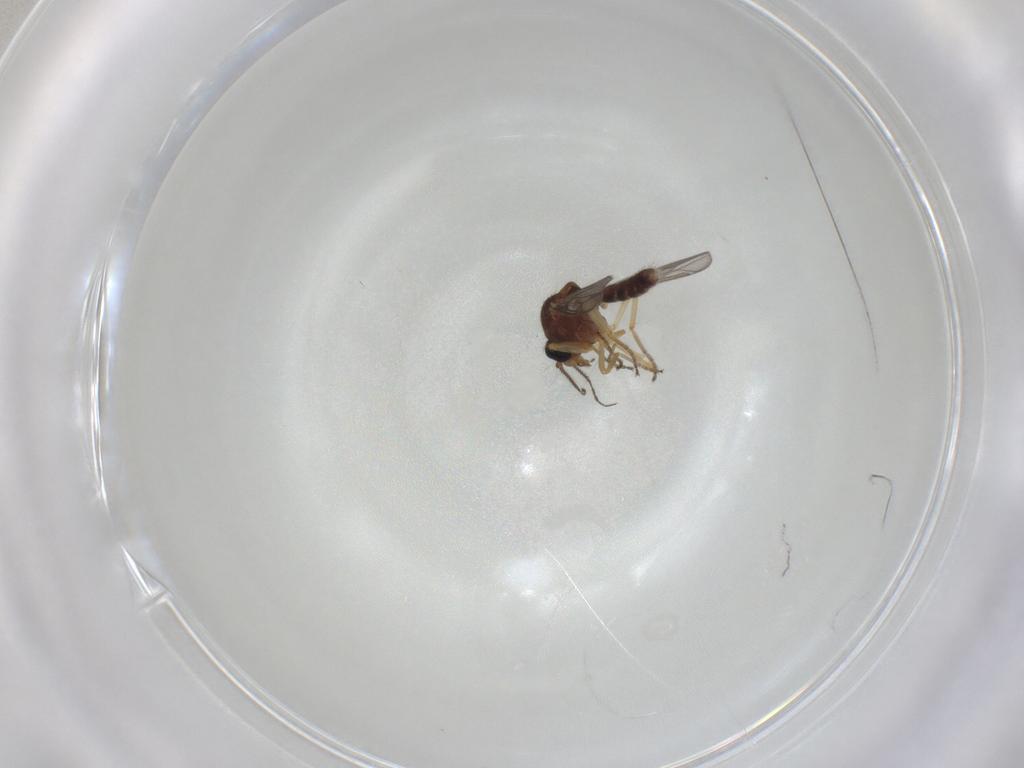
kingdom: Animalia
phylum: Arthropoda
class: Insecta
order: Diptera
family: Ceratopogonidae
